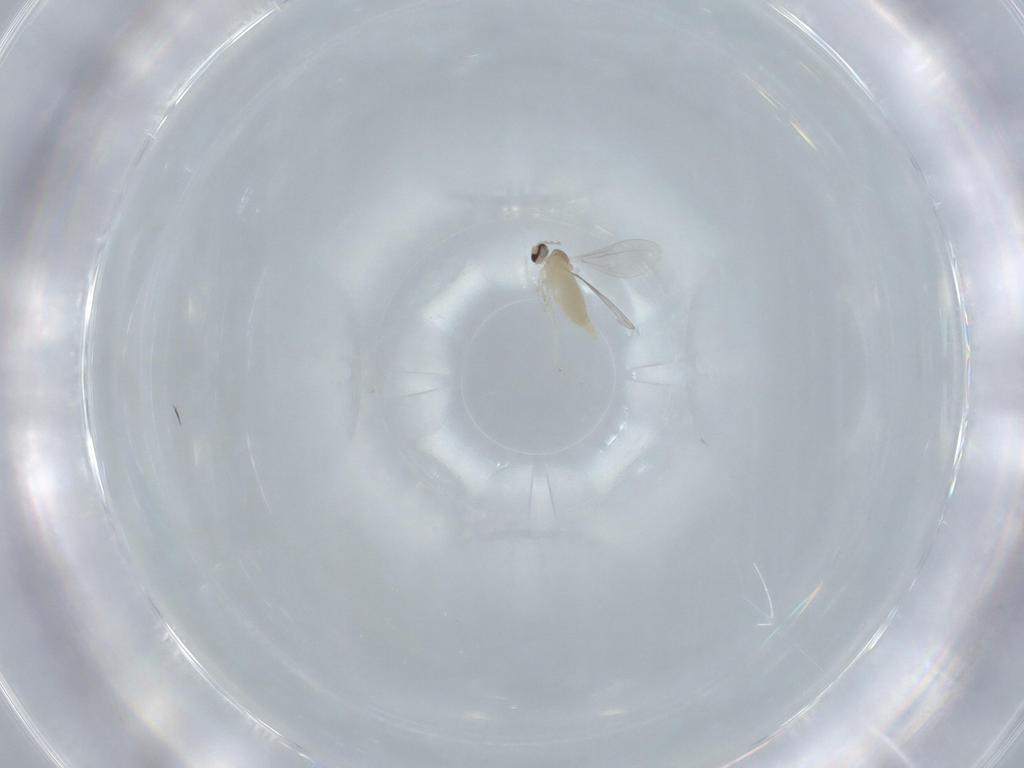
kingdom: Animalia
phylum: Arthropoda
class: Insecta
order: Diptera
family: Cecidomyiidae
